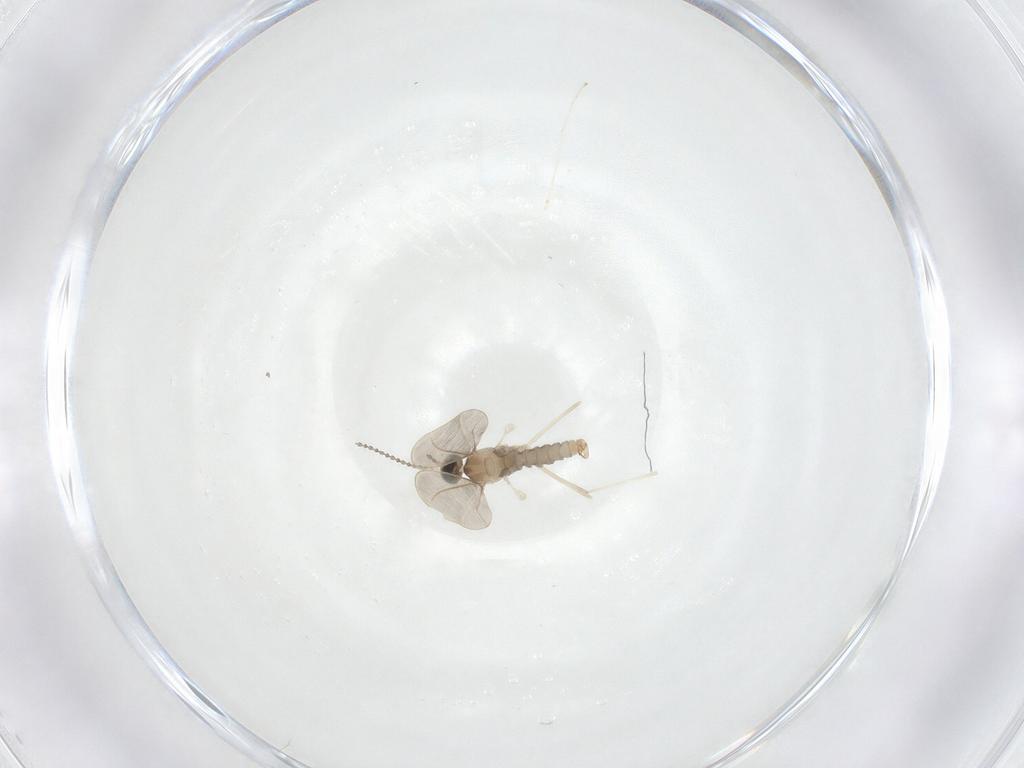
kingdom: Animalia
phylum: Arthropoda
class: Insecta
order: Diptera
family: Cecidomyiidae
